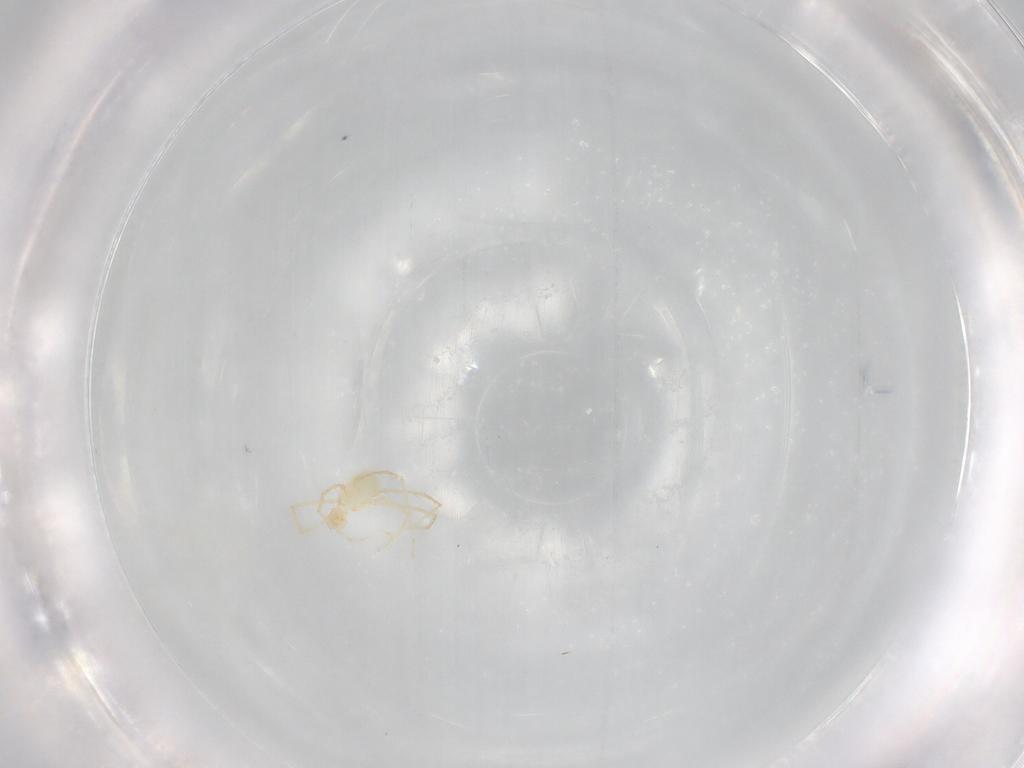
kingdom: Animalia
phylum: Arthropoda
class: Arachnida
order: Trombidiformes
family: Erythraeidae
